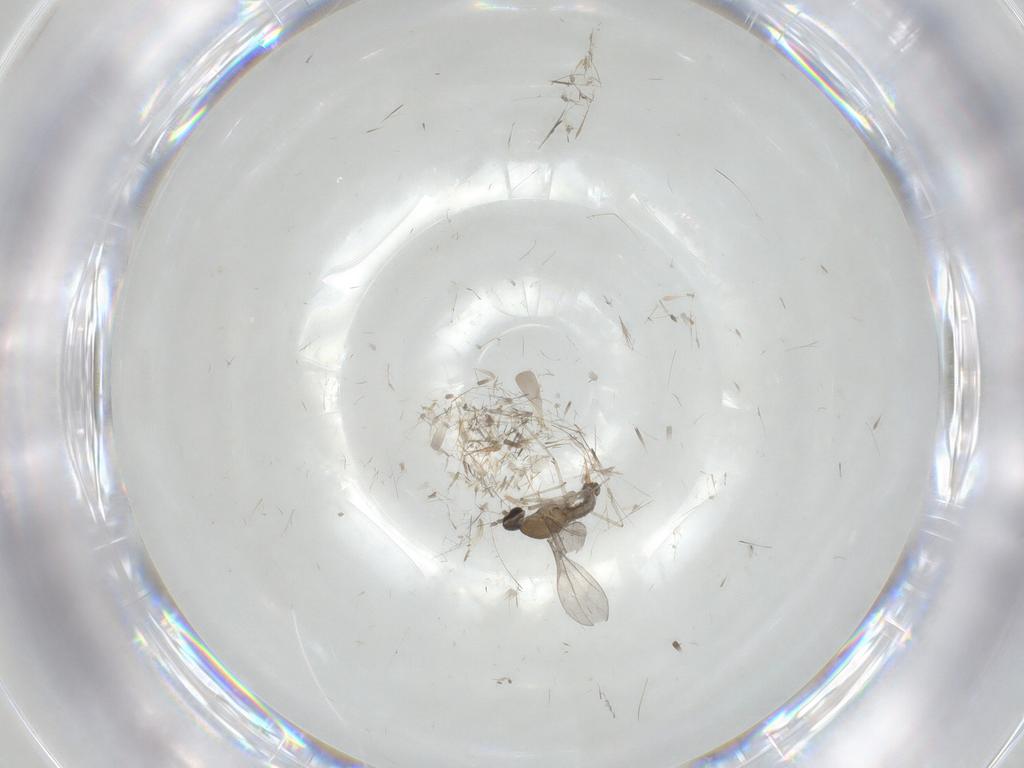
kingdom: Animalia
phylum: Arthropoda
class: Insecta
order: Diptera
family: Cecidomyiidae
